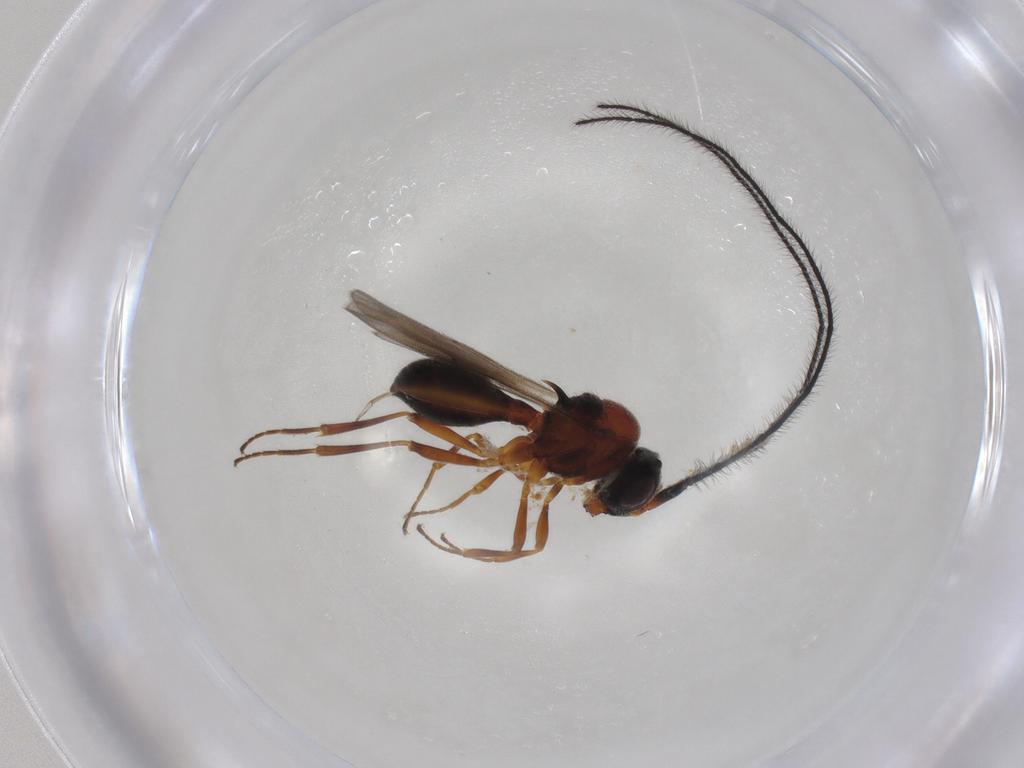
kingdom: Animalia
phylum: Arthropoda
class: Insecta
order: Hymenoptera
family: Scelionidae
